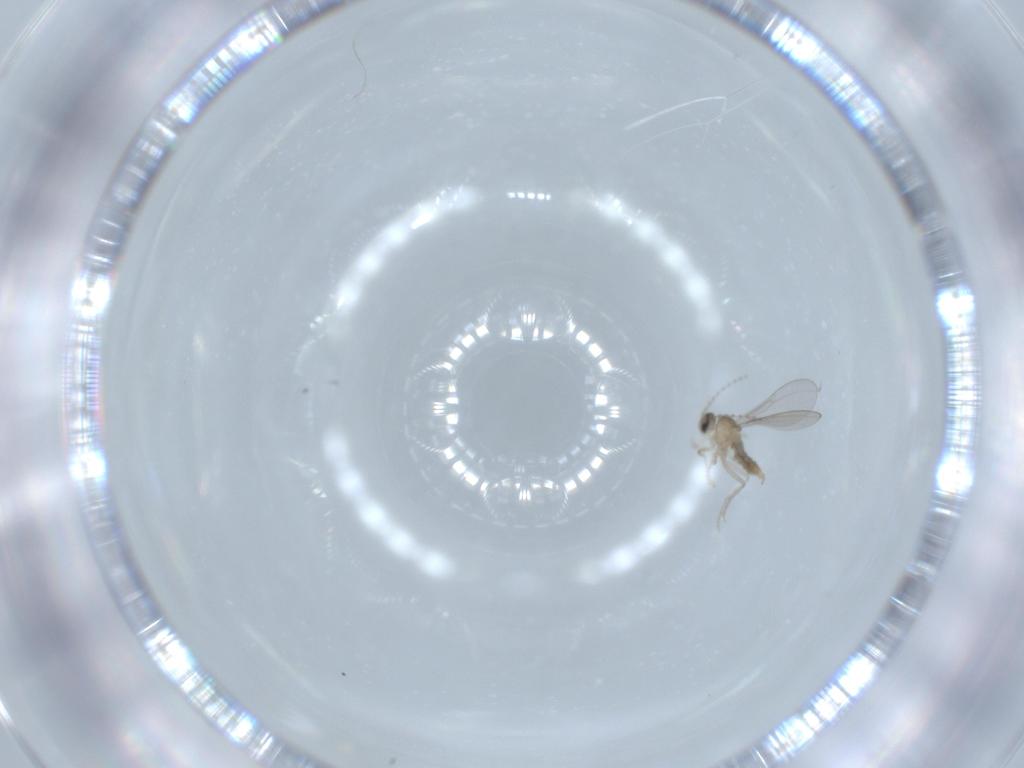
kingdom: Animalia
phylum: Arthropoda
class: Insecta
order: Diptera
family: Cecidomyiidae
